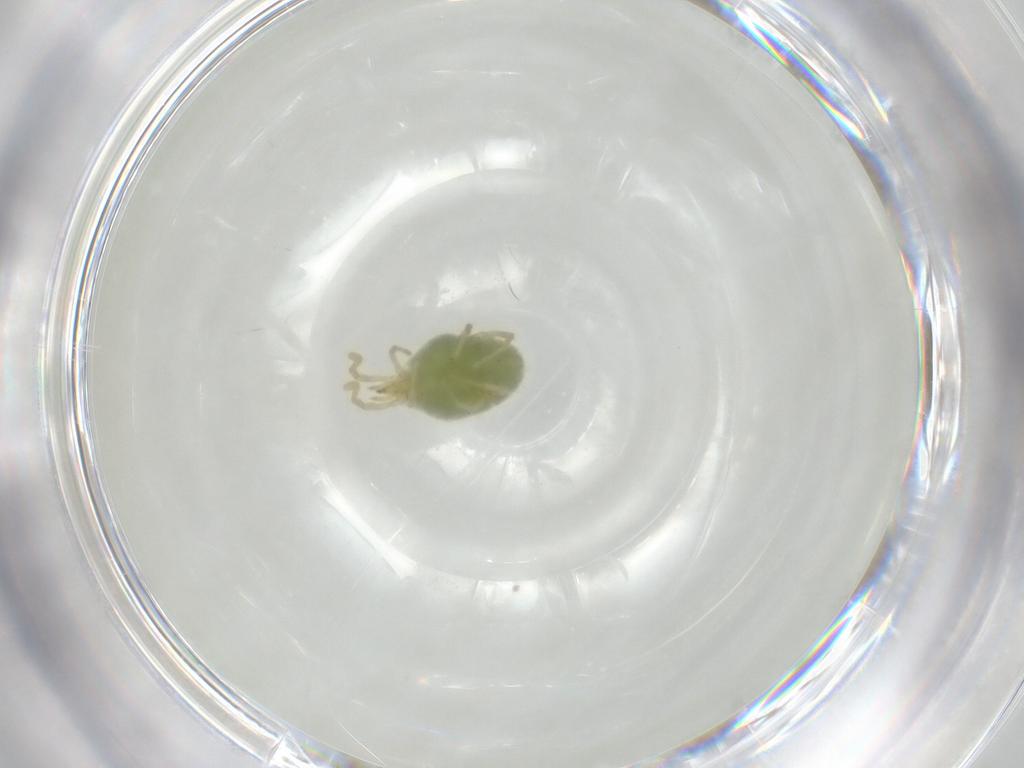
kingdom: Animalia
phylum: Arthropoda
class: Arachnida
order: Trombidiformes
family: Erythraeidae
